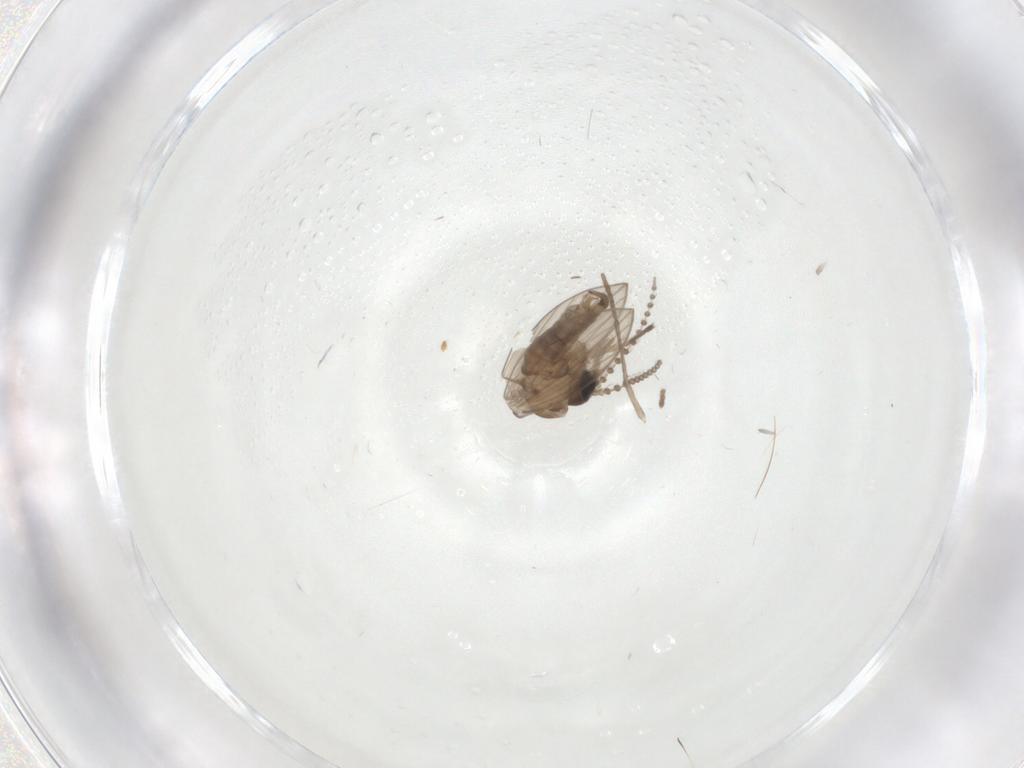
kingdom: Animalia
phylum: Arthropoda
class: Insecta
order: Diptera
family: Psychodidae
